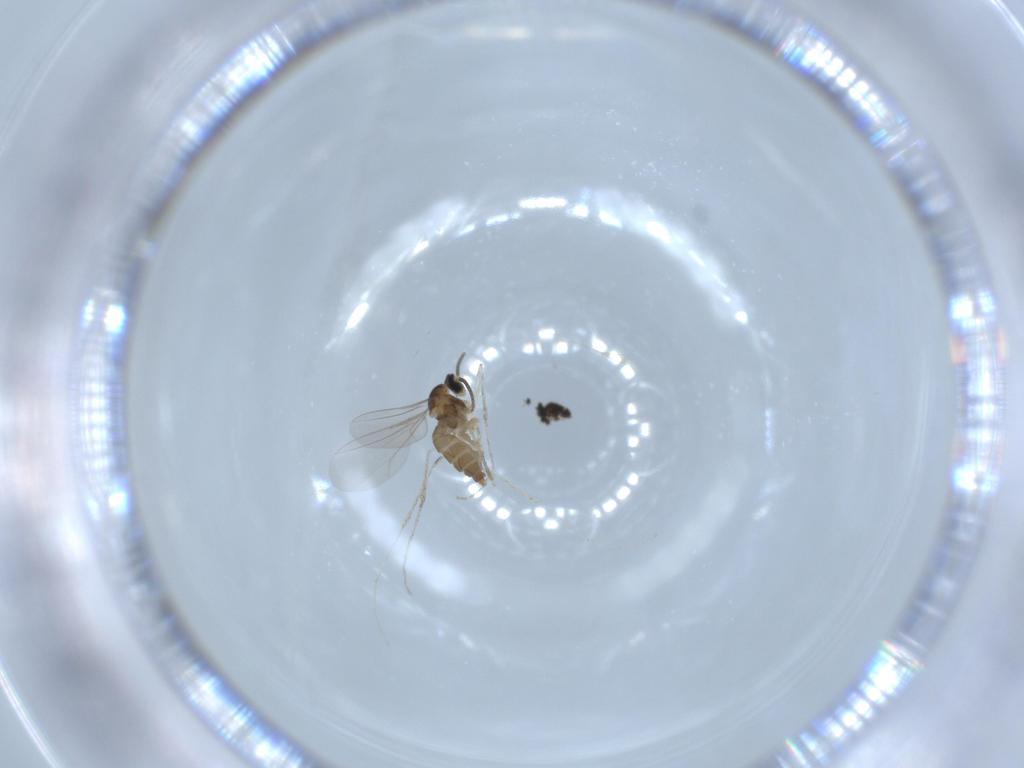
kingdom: Animalia
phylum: Arthropoda
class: Insecta
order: Diptera
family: Cecidomyiidae
